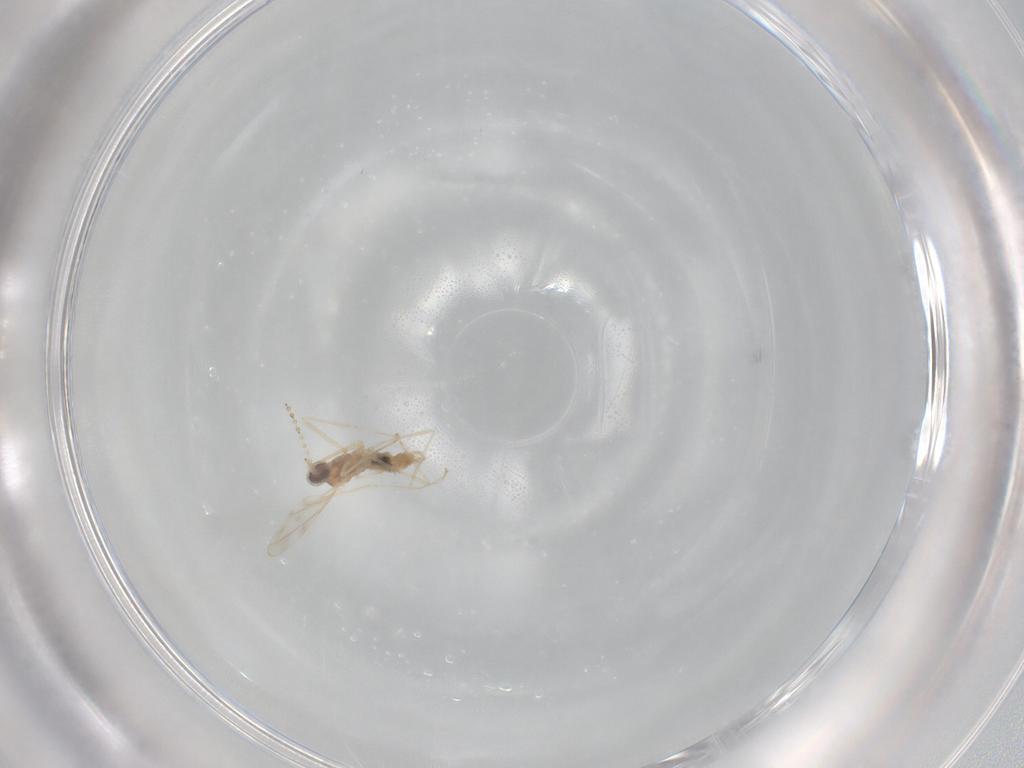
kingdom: Animalia
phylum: Arthropoda
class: Insecta
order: Diptera
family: Cecidomyiidae
